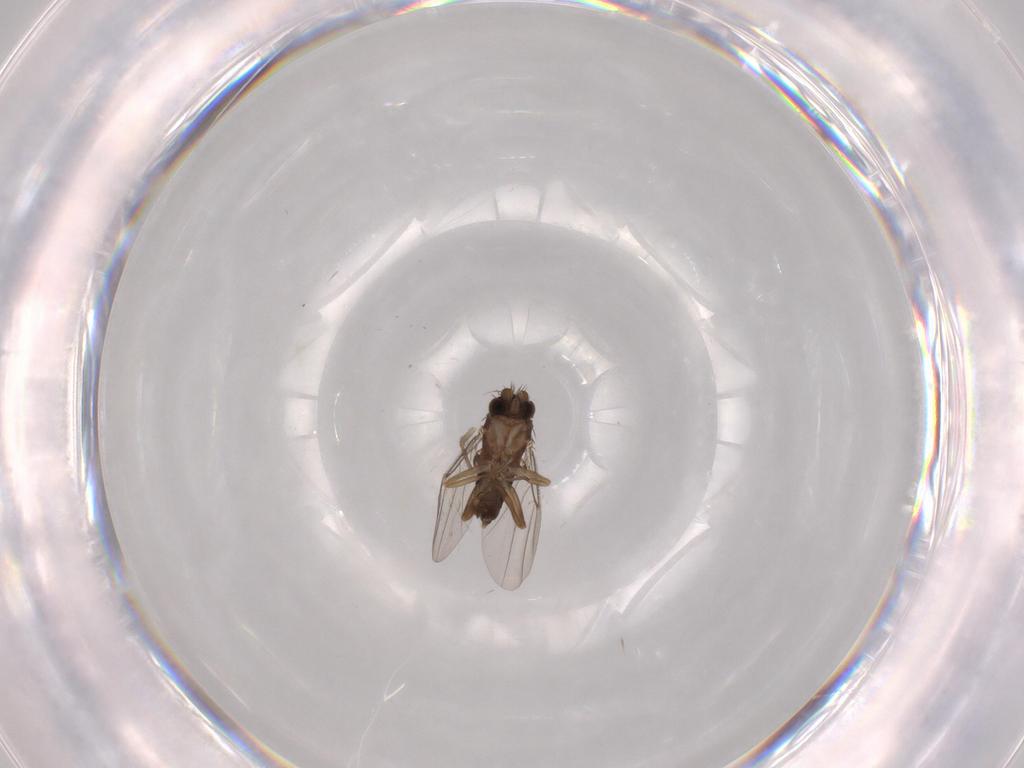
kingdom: Animalia
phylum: Arthropoda
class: Insecta
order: Diptera
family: Phoridae
